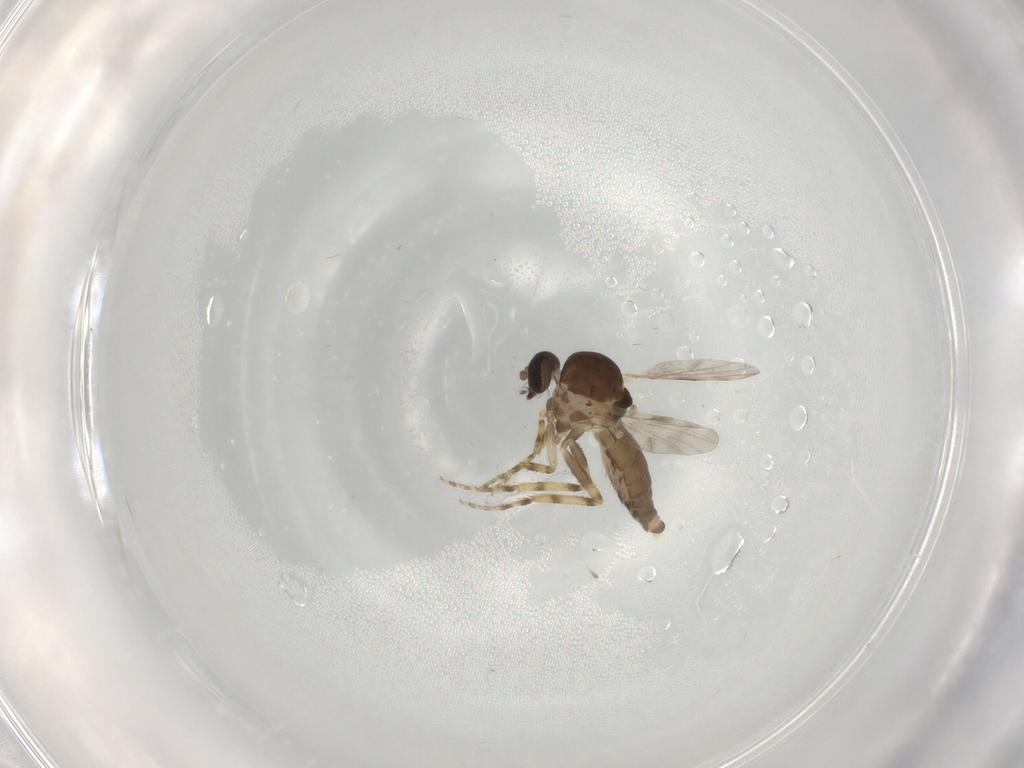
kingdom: Animalia
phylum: Arthropoda
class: Insecta
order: Diptera
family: Ceratopogonidae
